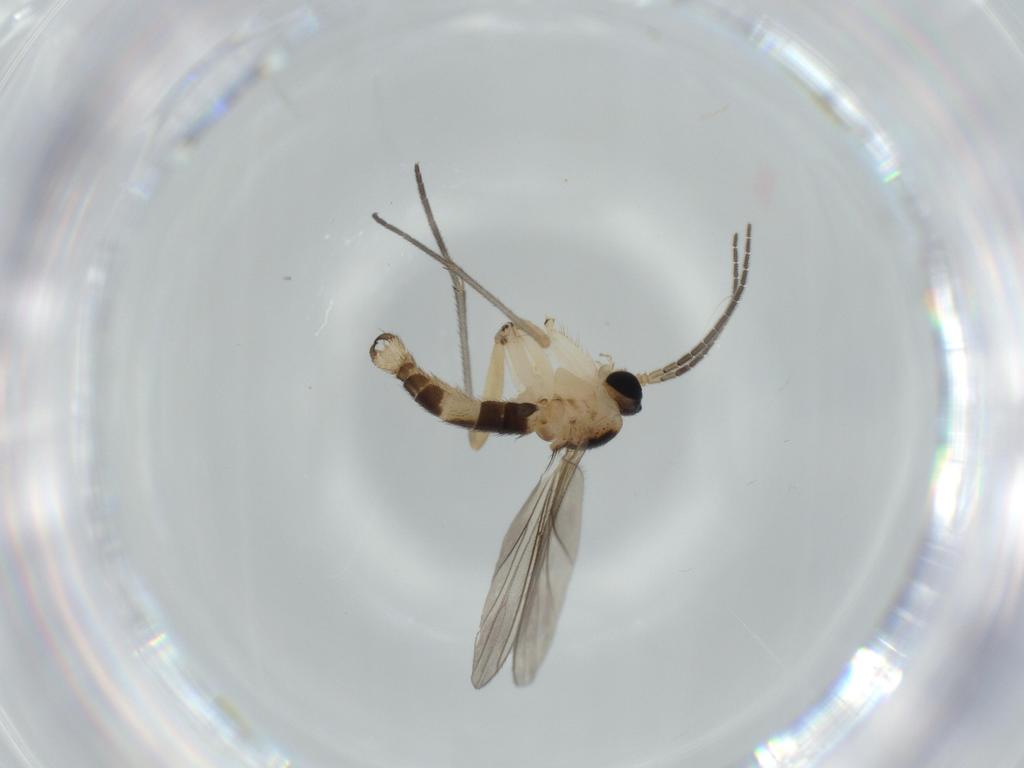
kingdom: Animalia
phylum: Arthropoda
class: Insecta
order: Diptera
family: Sciaridae
